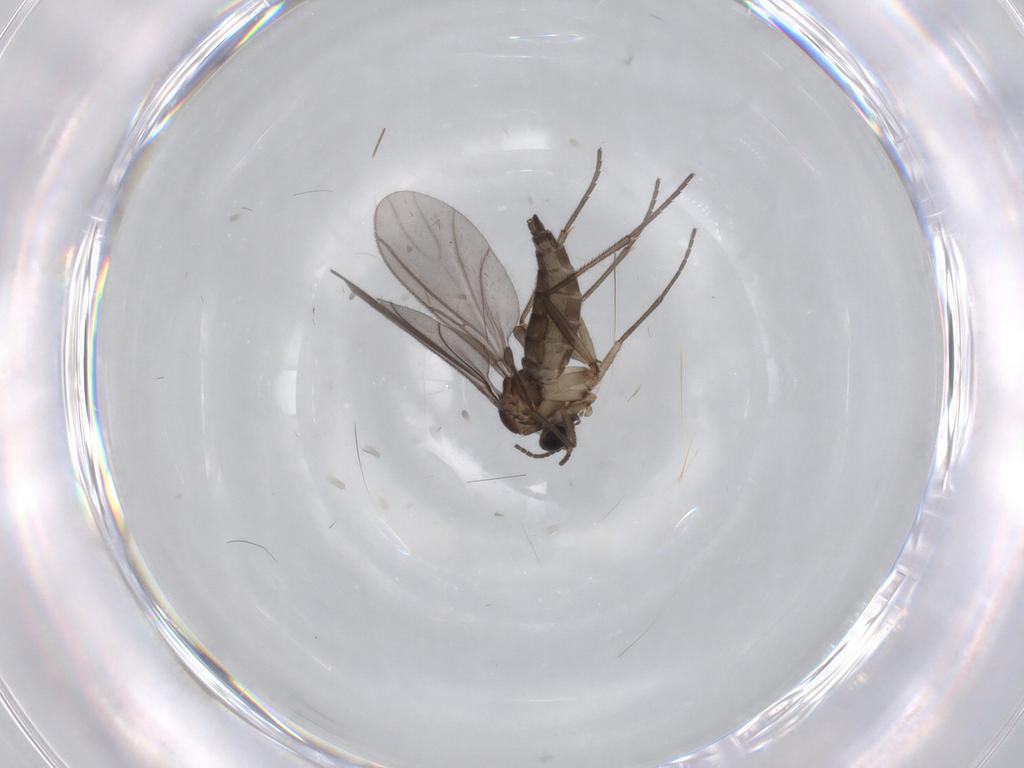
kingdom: Animalia
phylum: Arthropoda
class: Insecta
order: Diptera
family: Sciaridae
